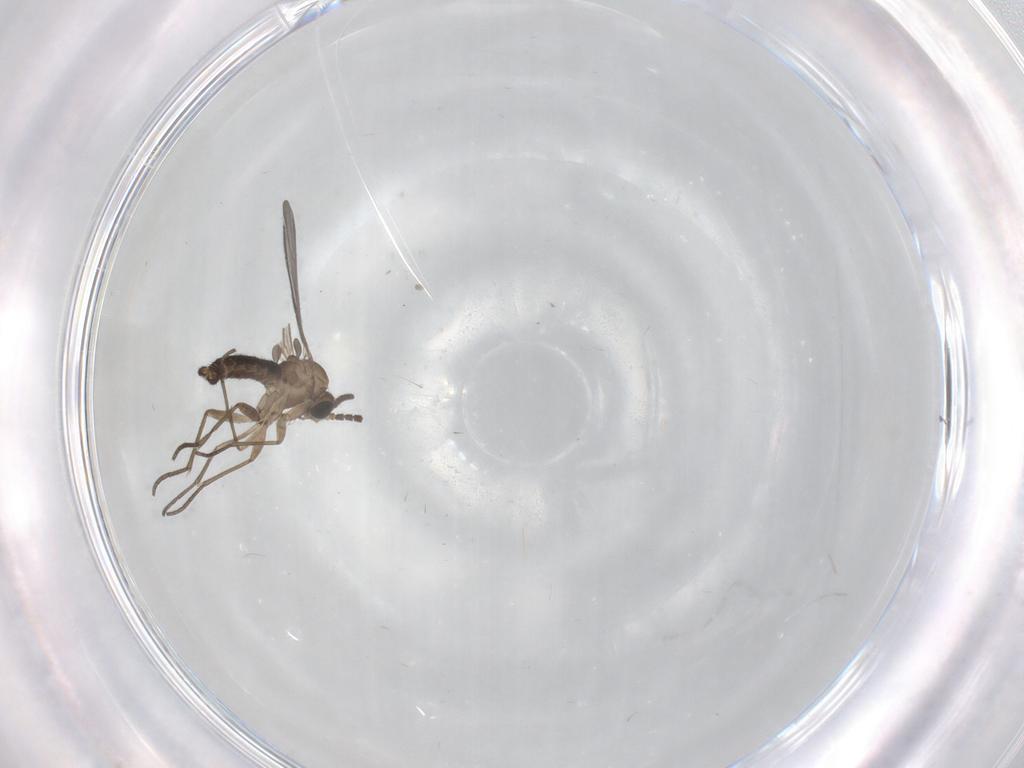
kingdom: Animalia
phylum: Arthropoda
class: Insecta
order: Diptera
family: Sciaridae
